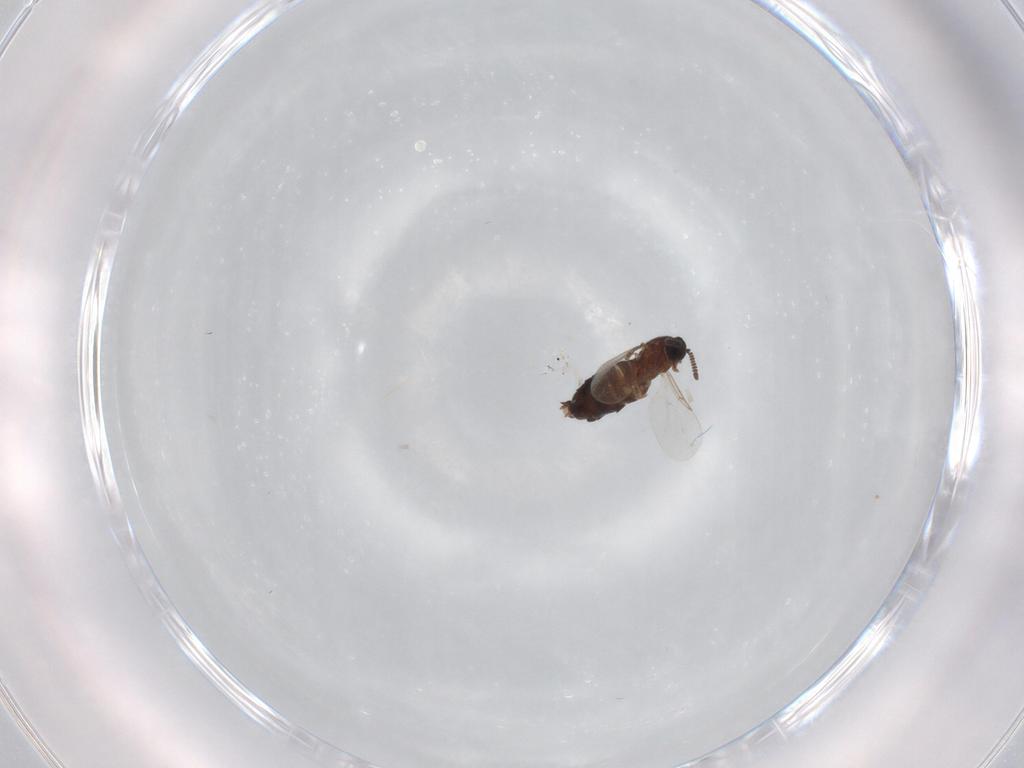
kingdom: Animalia
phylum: Arthropoda
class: Insecta
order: Diptera
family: Scatopsidae
